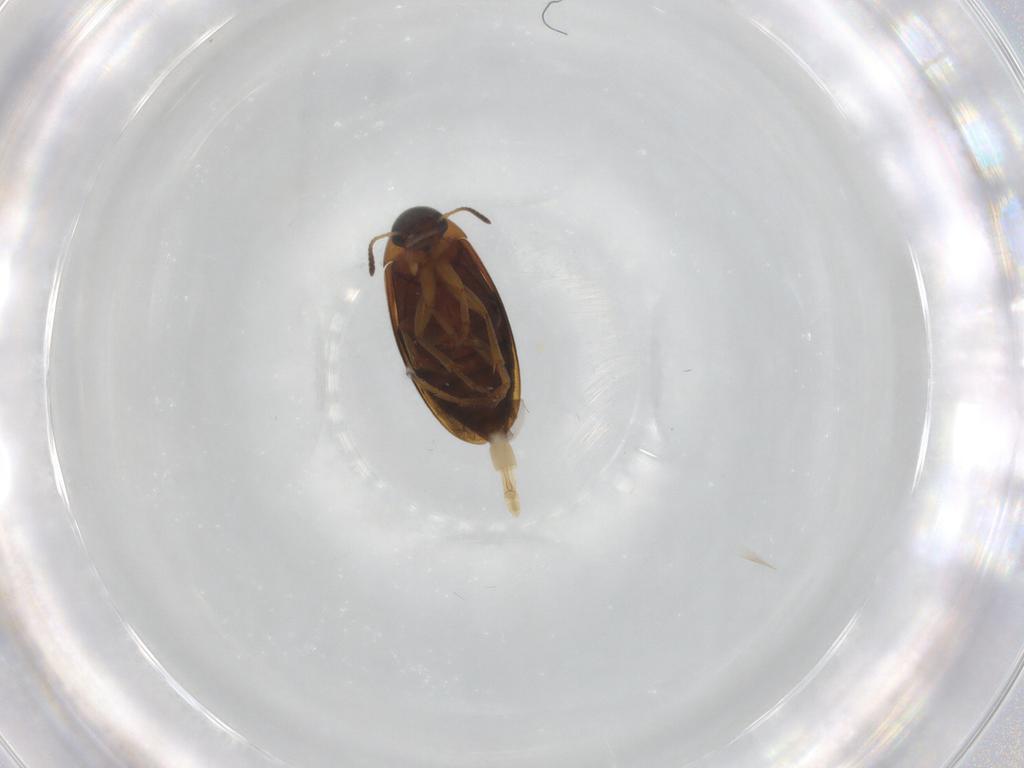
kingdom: Animalia
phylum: Arthropoda
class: Insecta
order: Coleoptera
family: Scraptiidae
